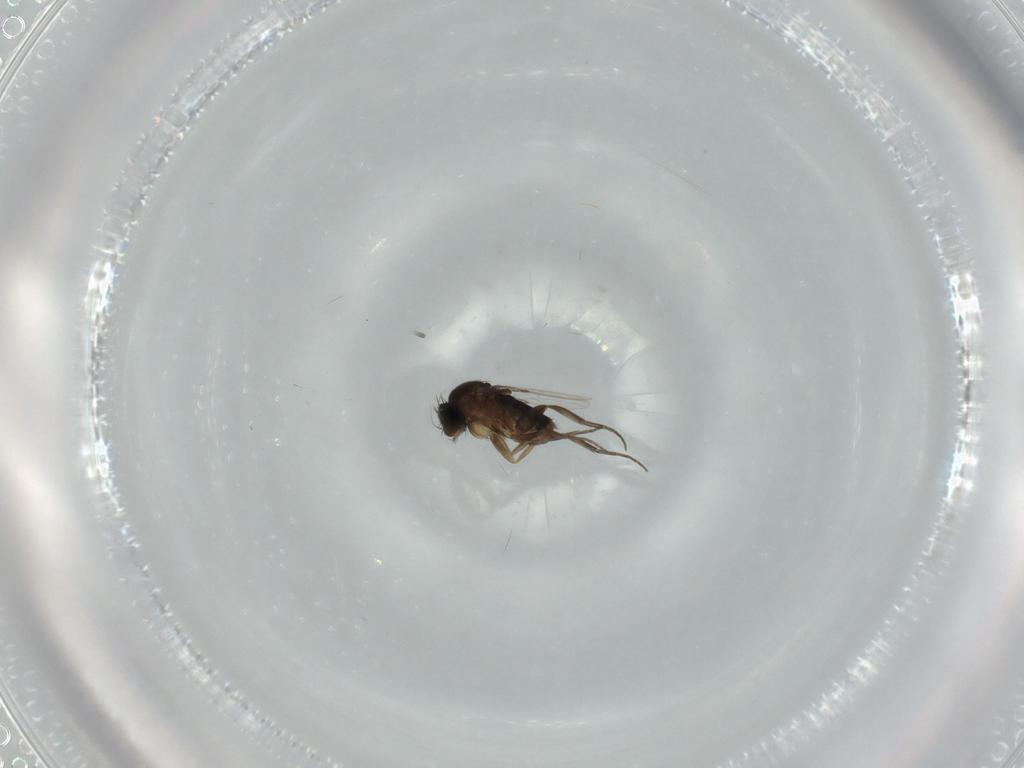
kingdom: Animalia
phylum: Arthropoda
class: Insecta
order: Diptera
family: Phoridae
